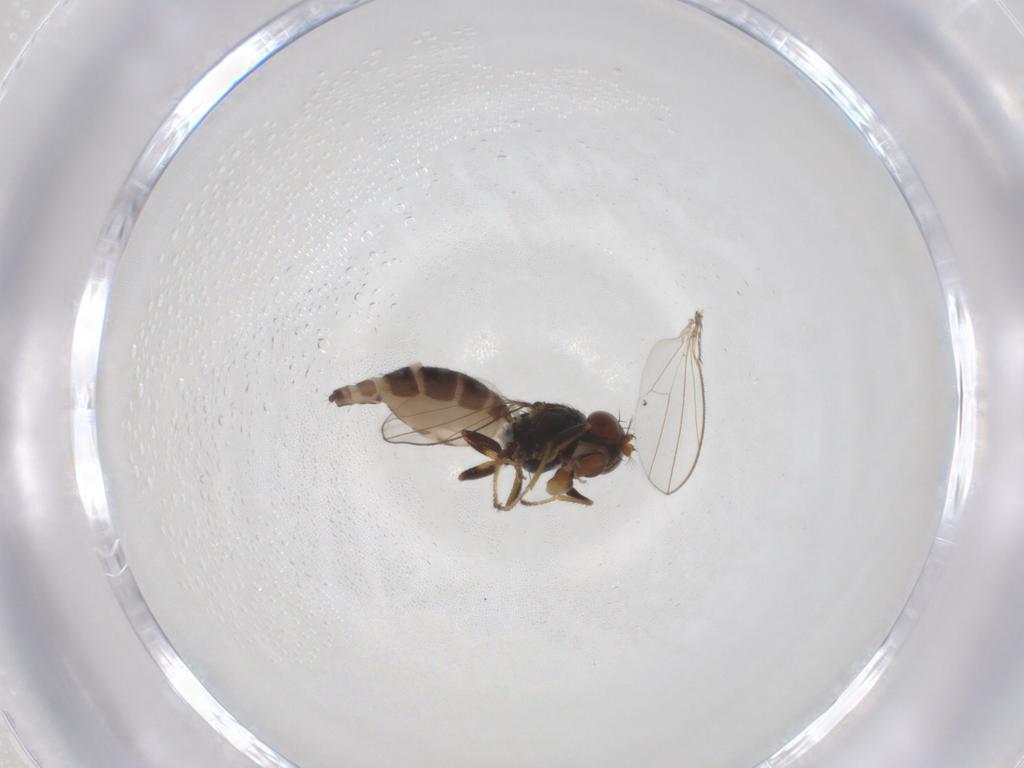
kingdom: Animalia
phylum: Arthropoda
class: Insecta
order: Diptera
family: Ephydridae
